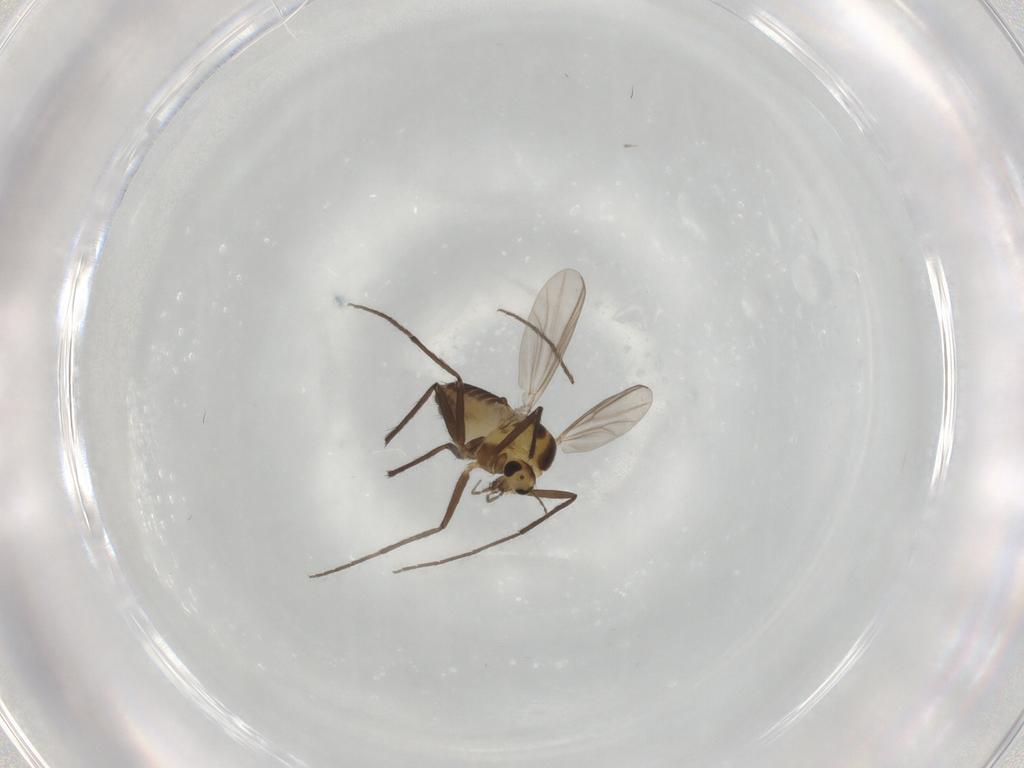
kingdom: Animalia
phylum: Arthropoda
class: Insecta
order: Diptera
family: Chironomidae
